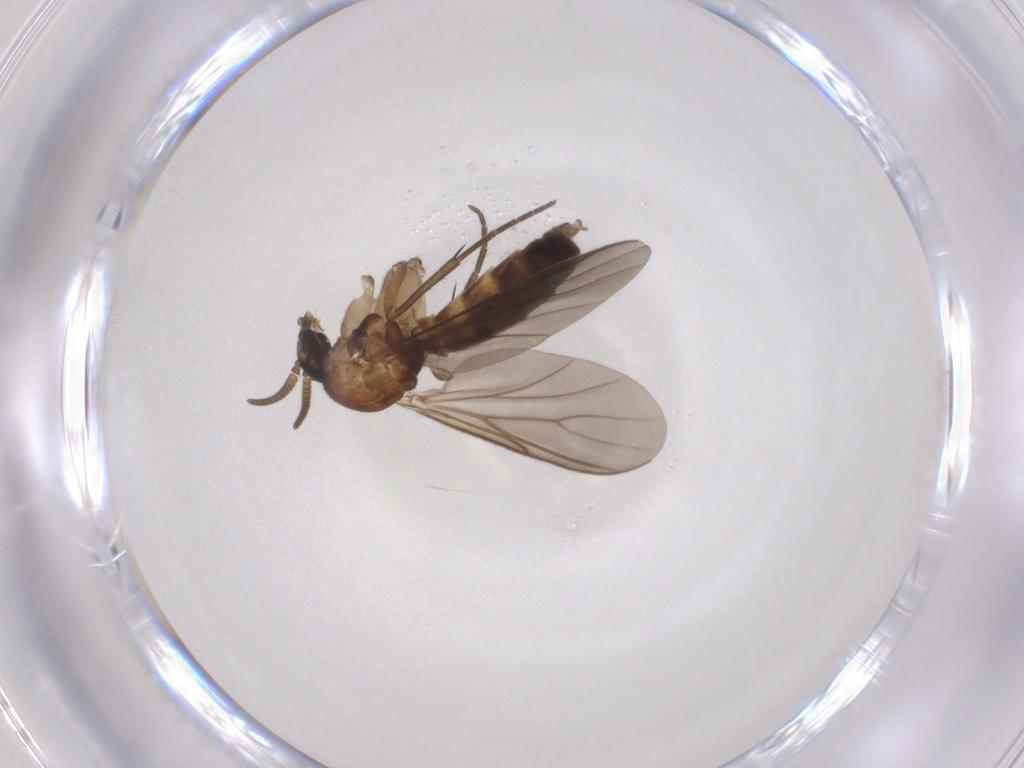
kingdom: Animalia
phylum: Arthropoda
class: Insecta
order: Diptera
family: Mycetophilidae
